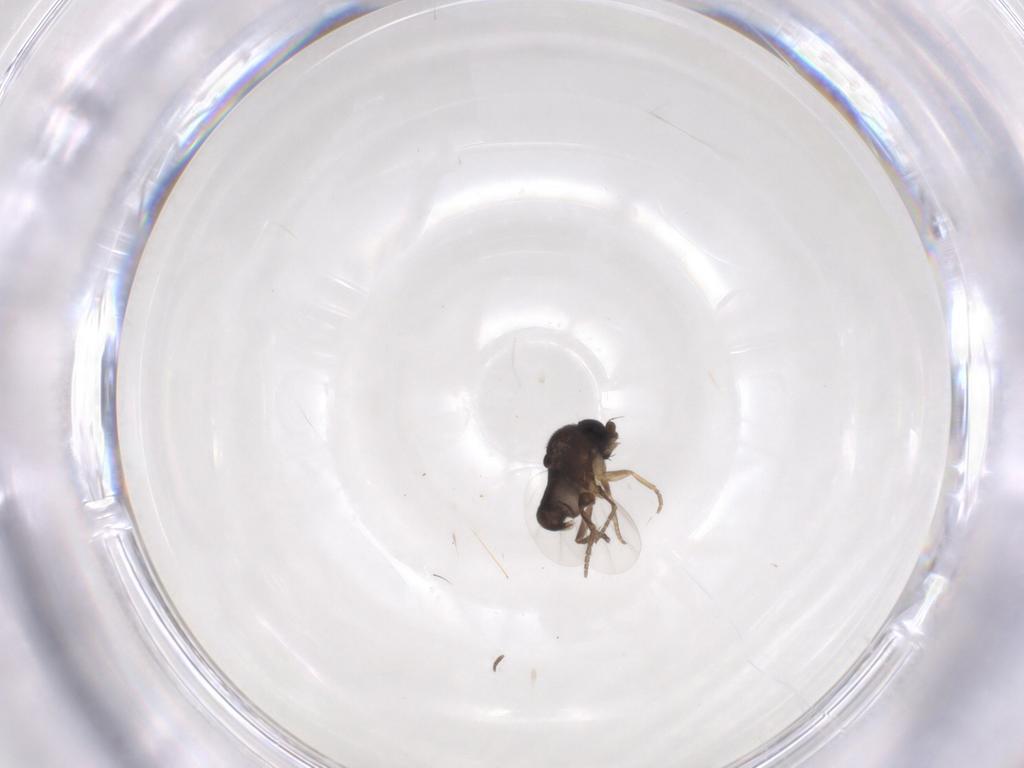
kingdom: Animalia
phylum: Arthropoda
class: Insecta
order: Diptera
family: Phoridae
